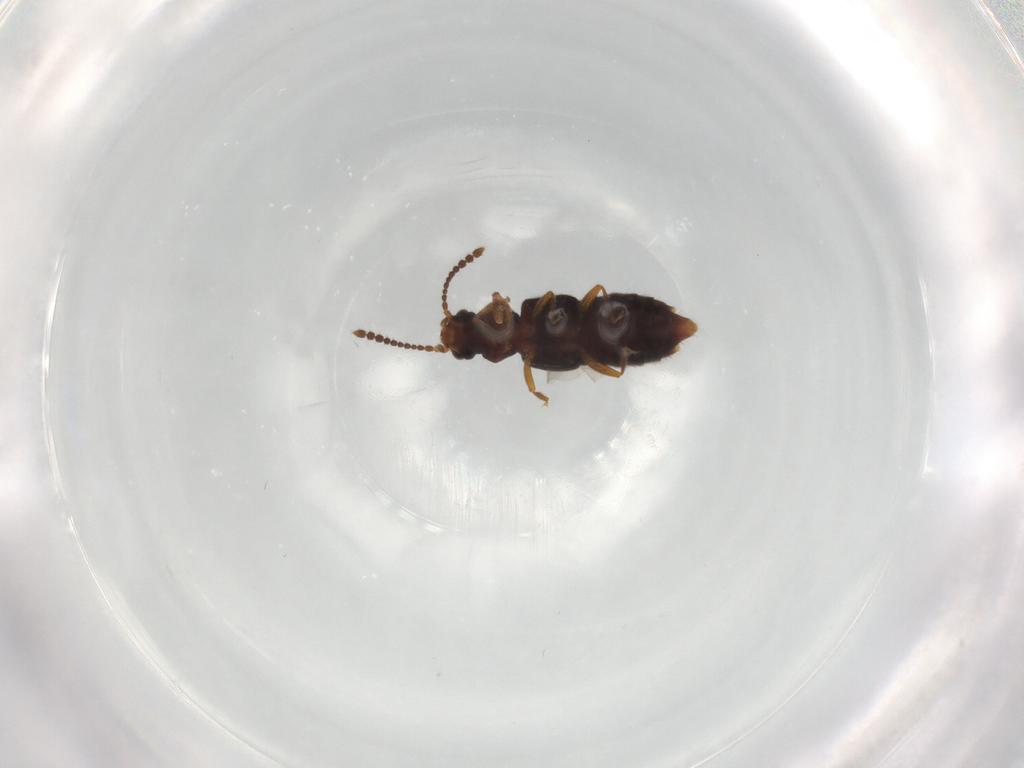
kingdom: Animalia
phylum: Arthropoda
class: Insecta
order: Coleoptera
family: Staphylinidae
